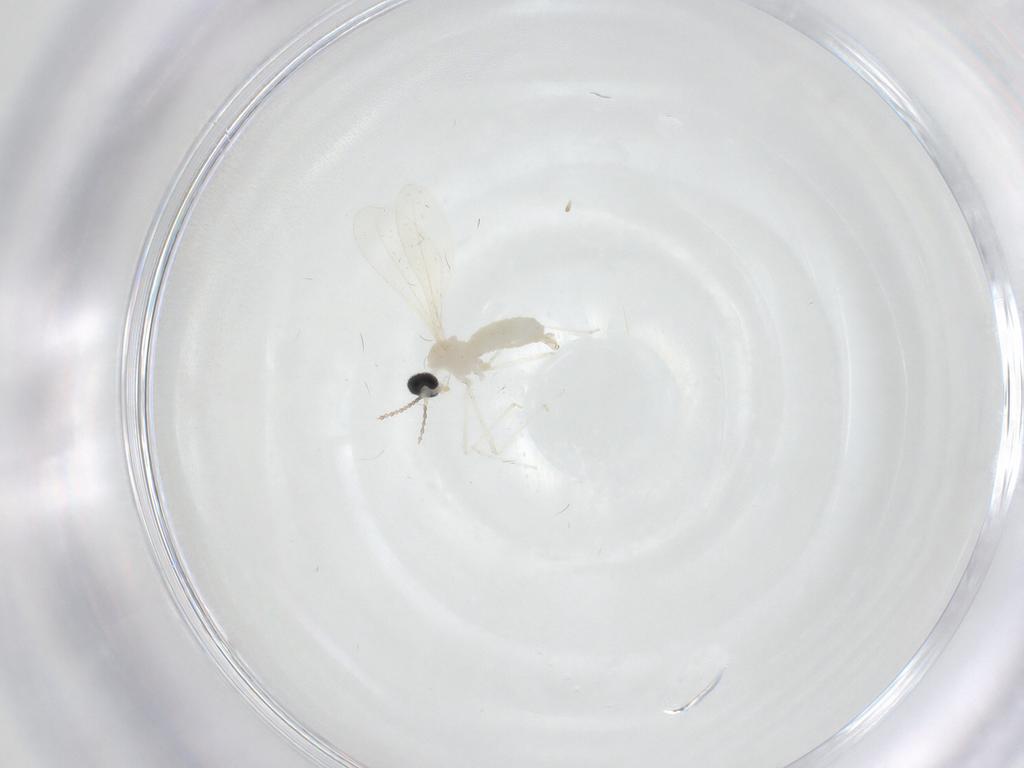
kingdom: Animalia
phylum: Arthropoda
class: Insecta
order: Diptera
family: Cecidomyiidae
